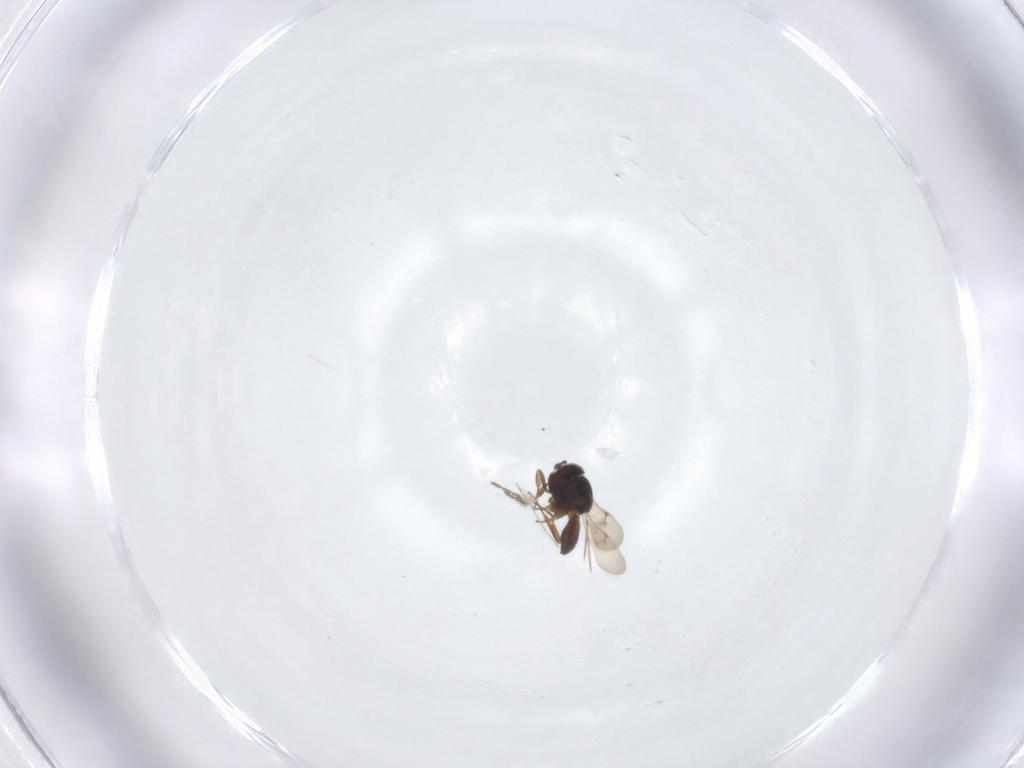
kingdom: Animalia
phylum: Arthropoda
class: Insecta
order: Hymenoptera
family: Scelionidae
